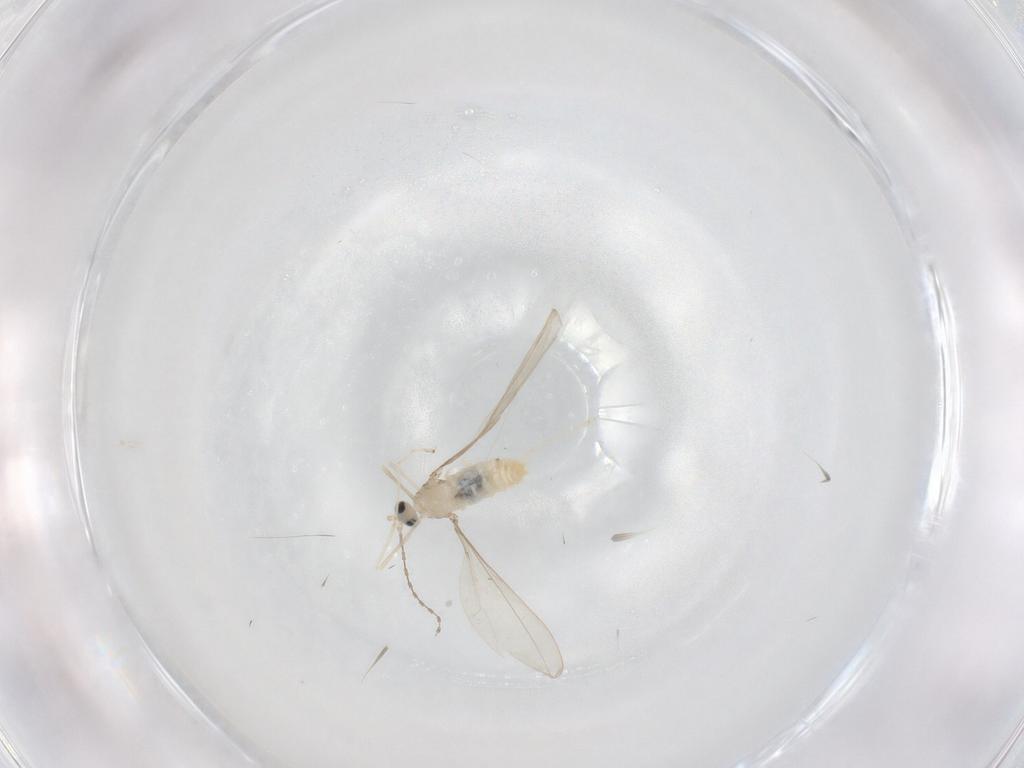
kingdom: Animalia
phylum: Arthropoda
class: Insecta
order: Diptera
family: Cecidomyiidae
